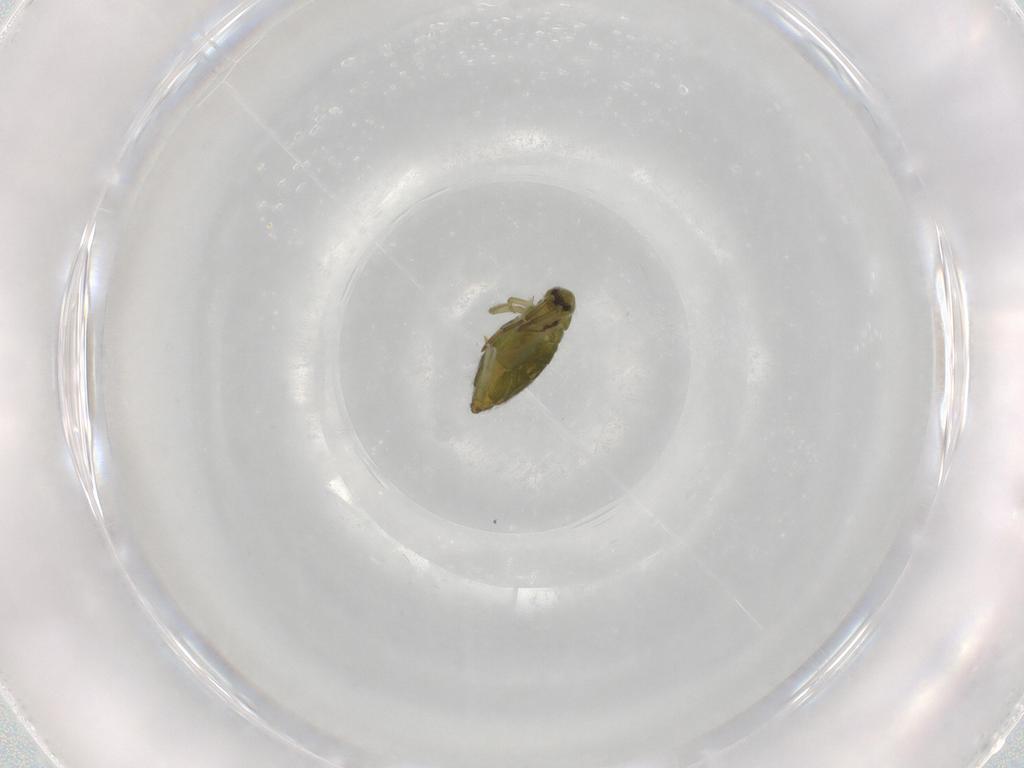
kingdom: Animalia
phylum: Arthropoda
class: Collembola
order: Entomobryomorpha
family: Entomobryidae
